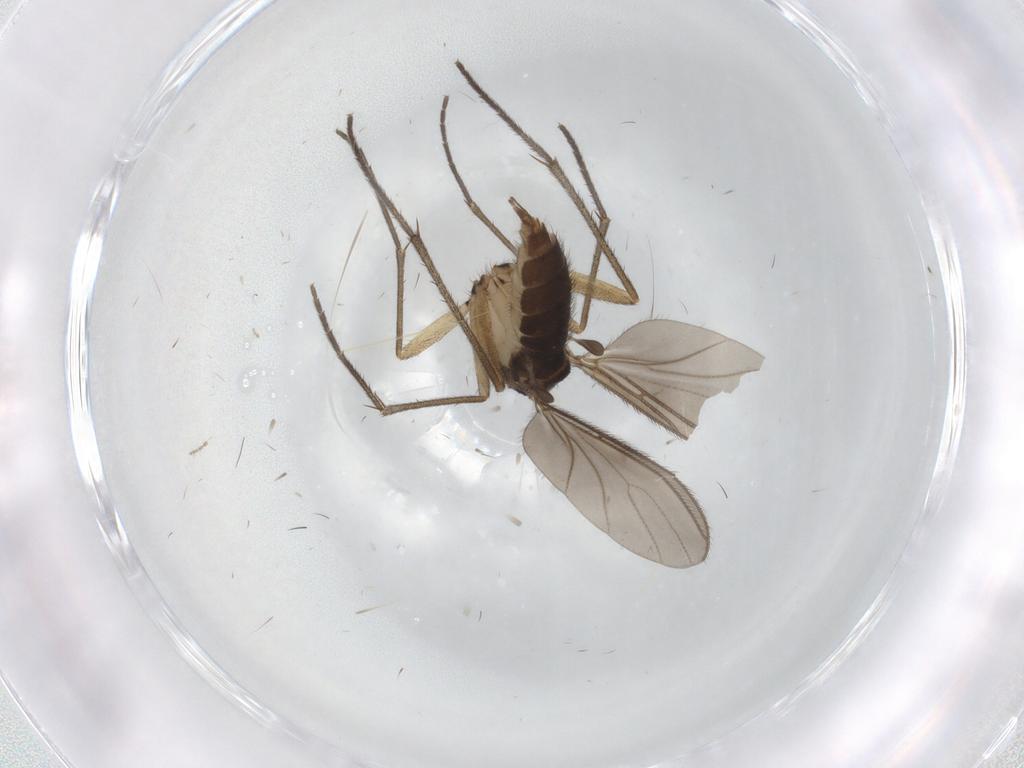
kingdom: Animalia
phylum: Arthropoda
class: Insecta
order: Diptera
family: Sciaridae
